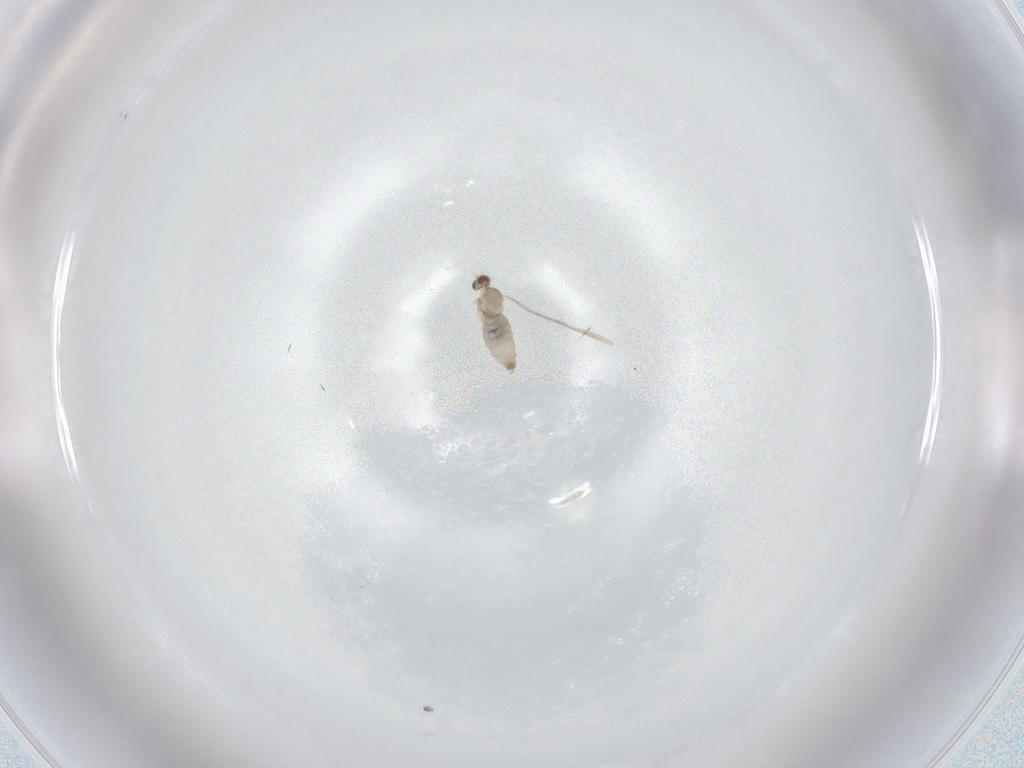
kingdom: Animalia
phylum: Arthropoda
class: Insecta
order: Diptera
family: Cecidomyiidae
